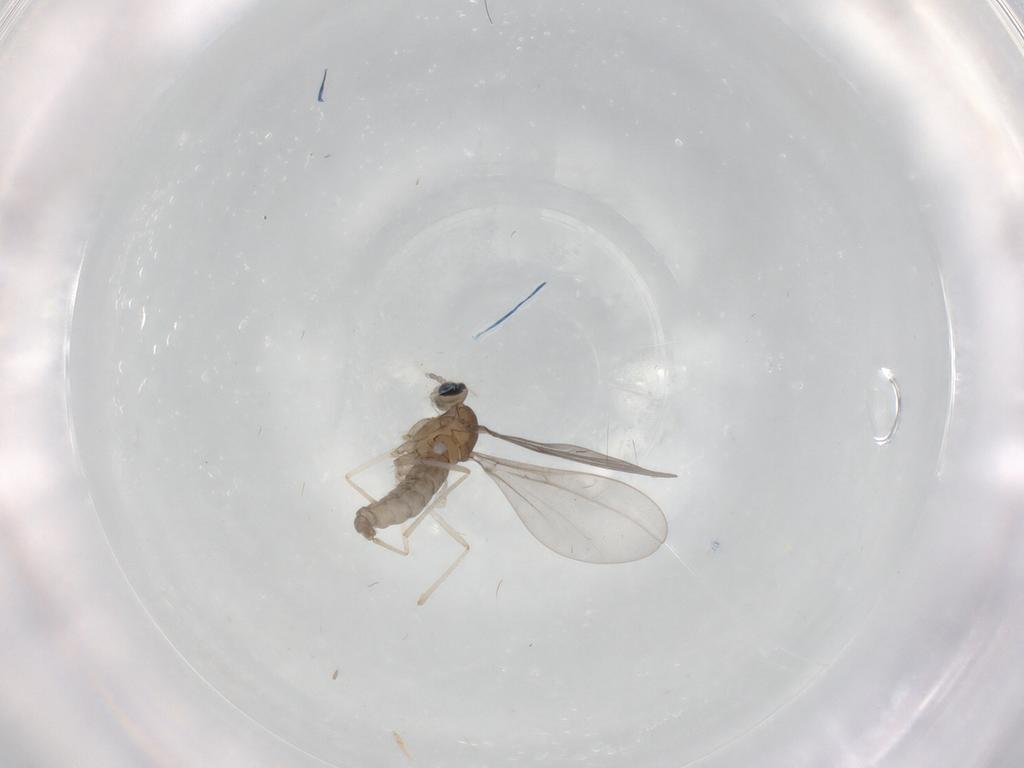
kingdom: Animalia
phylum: Arthropoda
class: Insecta
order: Diptera
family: Cecidomyiidae
